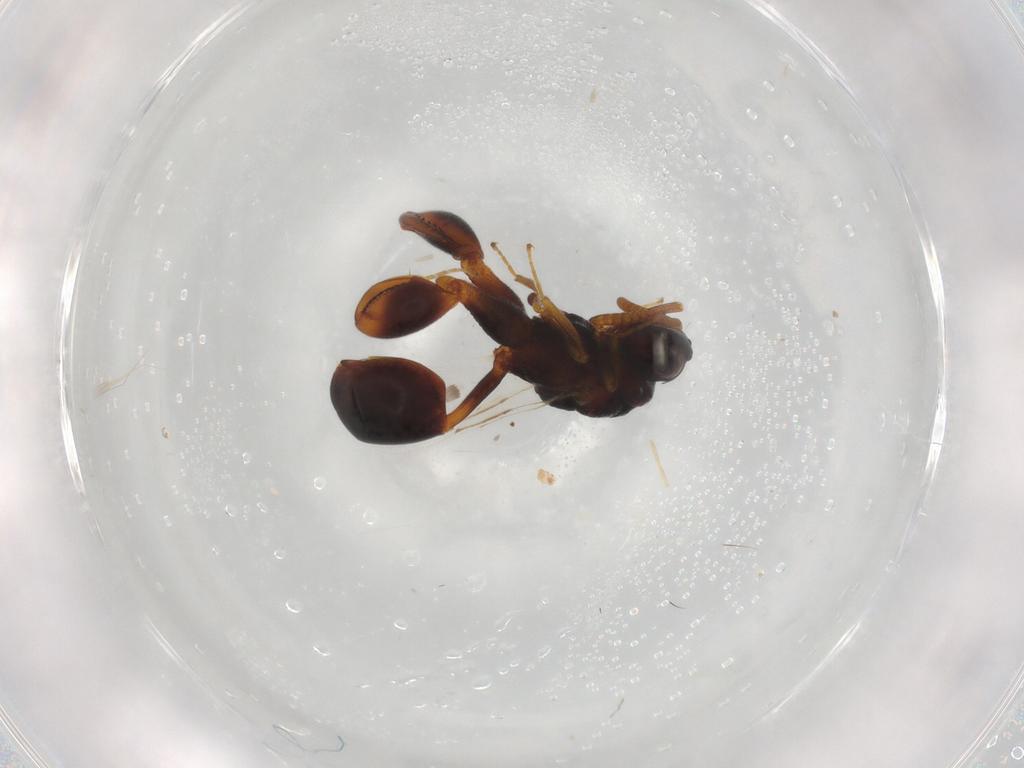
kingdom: Animalia
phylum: Arthropoda
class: Insecta
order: Hymenoptera
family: Chalcididae
